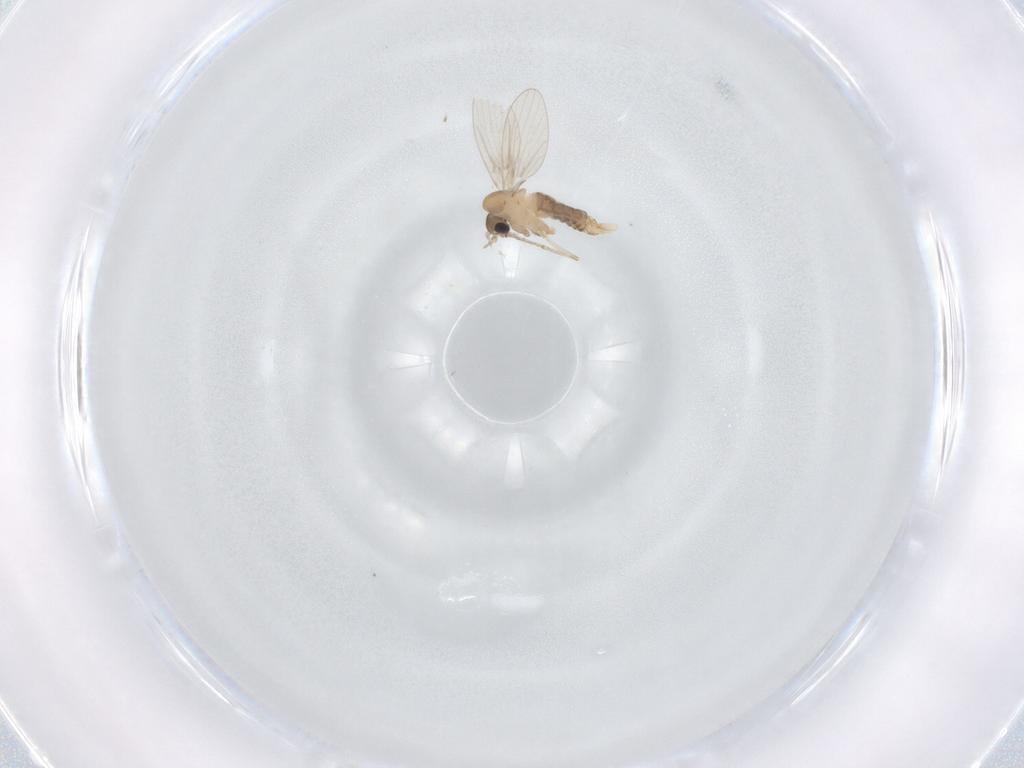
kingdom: Animalia
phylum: Arthropoda
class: Insecta
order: Diptera
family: Psychodidae
